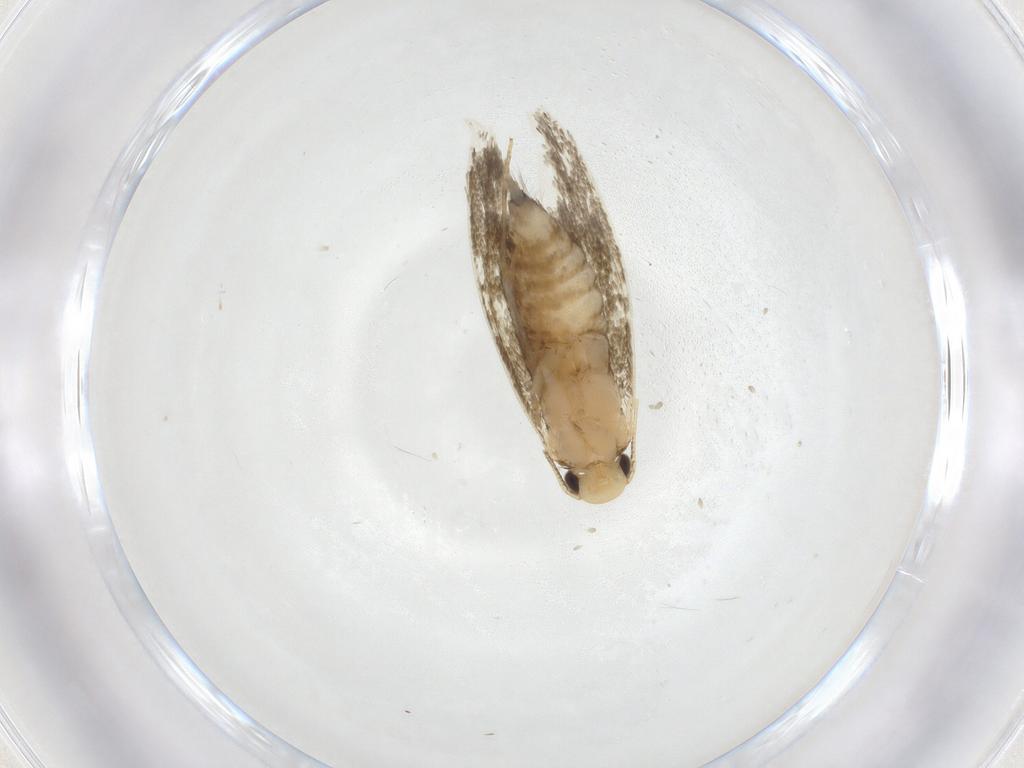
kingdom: Animalia
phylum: Arthropoda
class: Insecta
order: Lepidoptera
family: Tineidae
